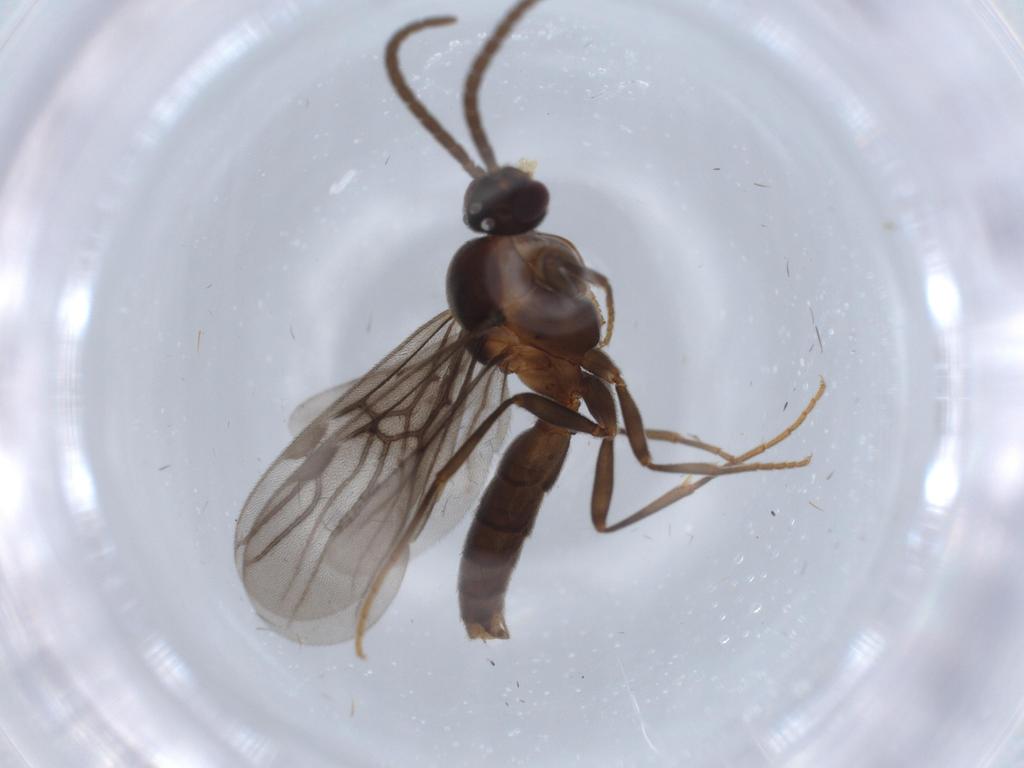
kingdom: Animalia
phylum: Arthropoda
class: Insecta
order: Hymenoptera
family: Formicidae
